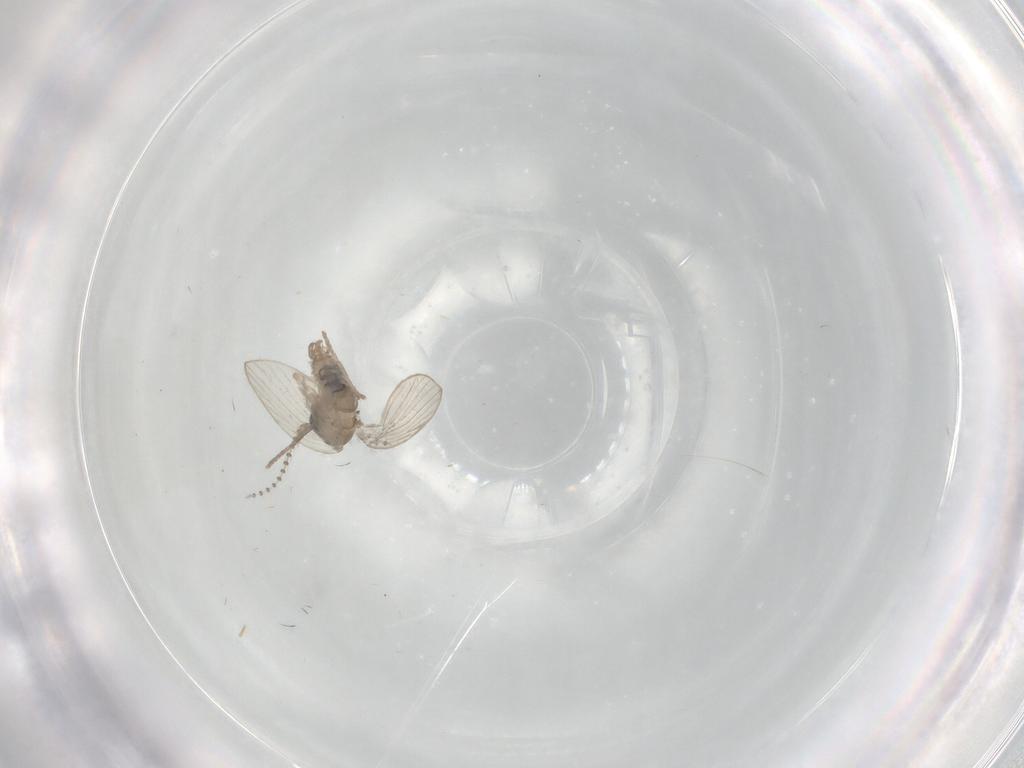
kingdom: Animalia
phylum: Arthropoda
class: Insecta
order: Diptera
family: Psychodidae
